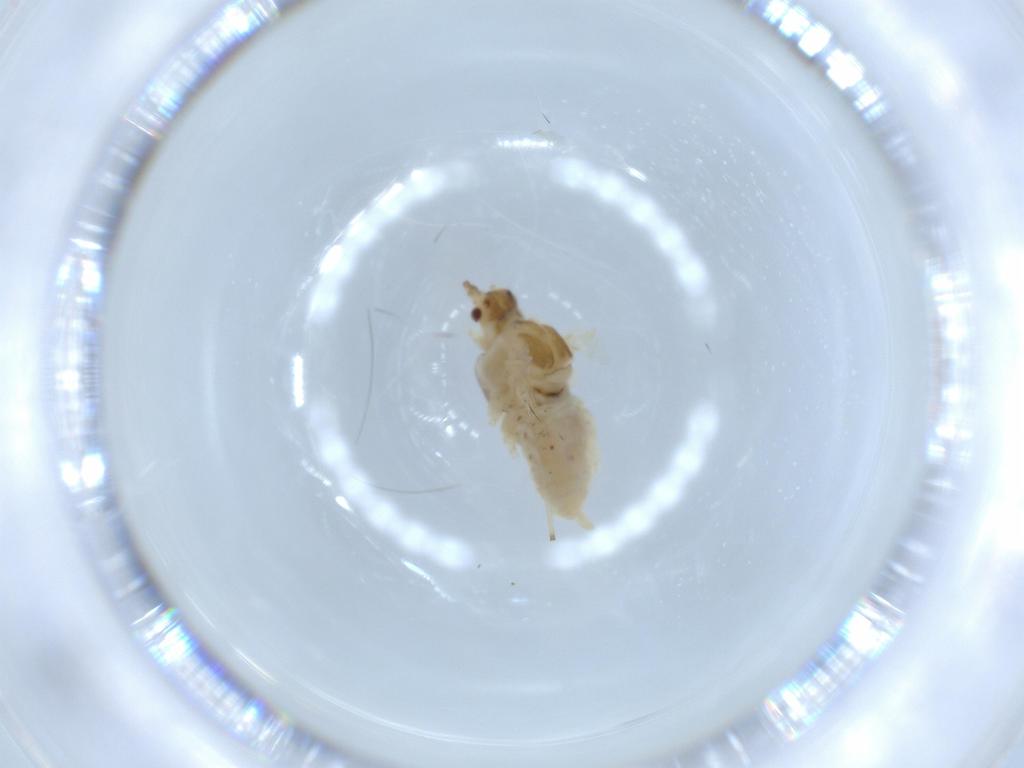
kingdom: Animalia
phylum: Arthropoda
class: Insecta
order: Hemiptera
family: Aphididae
